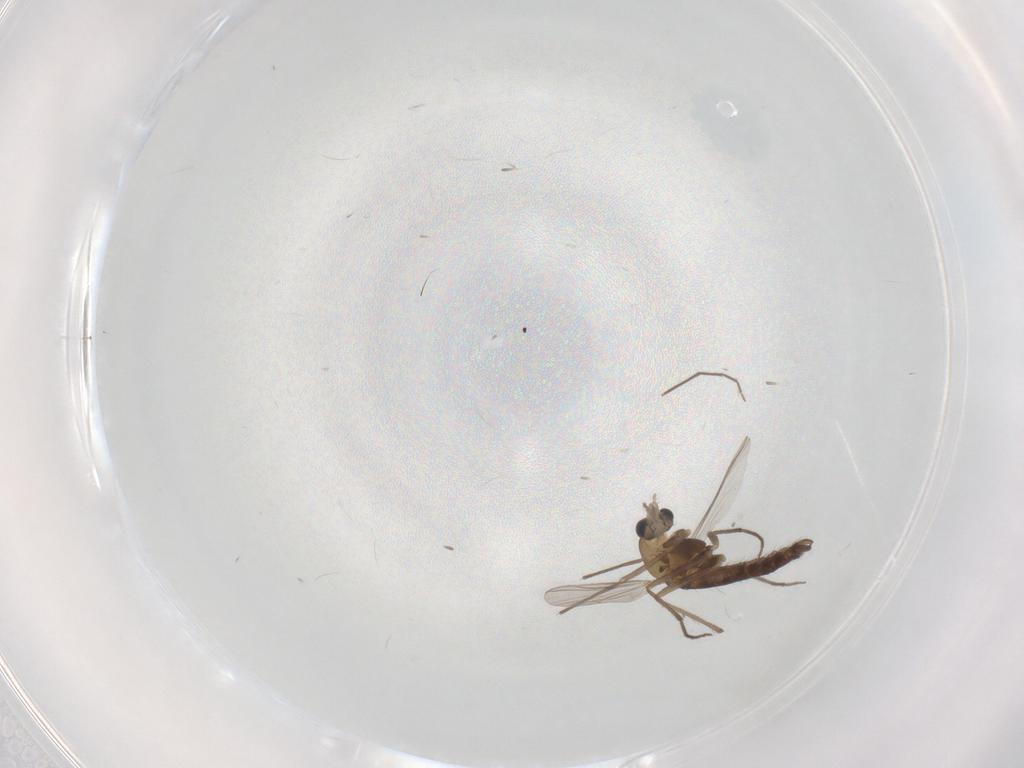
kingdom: Animalia
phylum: Arthropoda
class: Insecta
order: Diptera
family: Chironomidae
